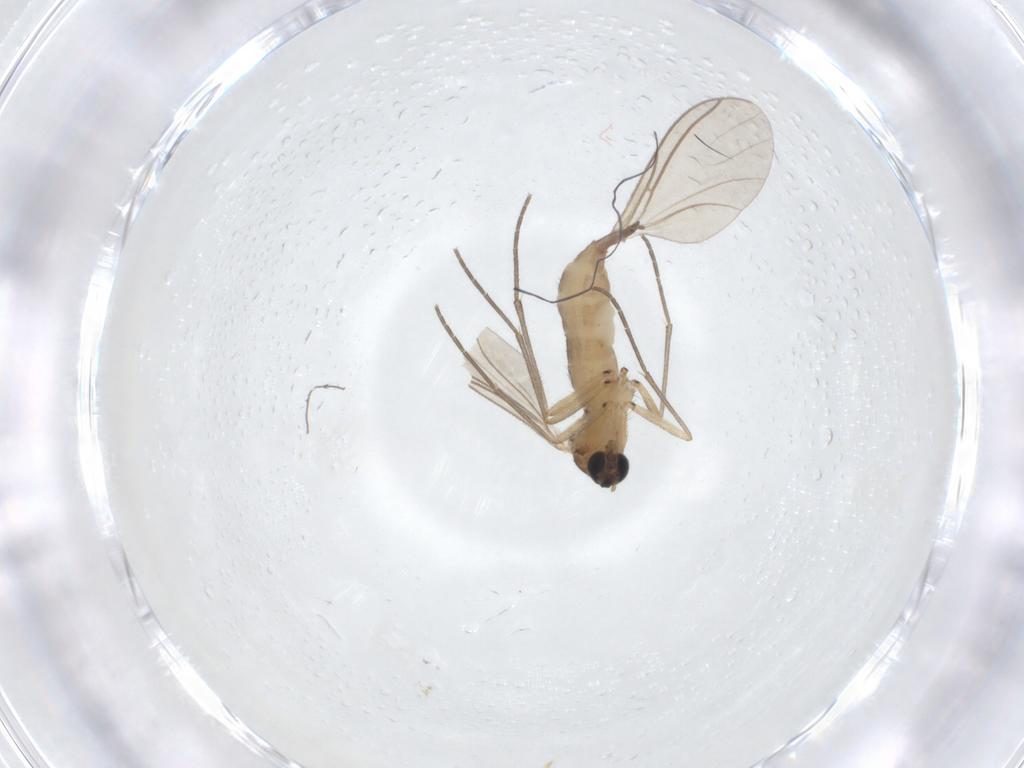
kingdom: Animalia
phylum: Arthropoda
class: Insecta
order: Diptera
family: Sciaridae
